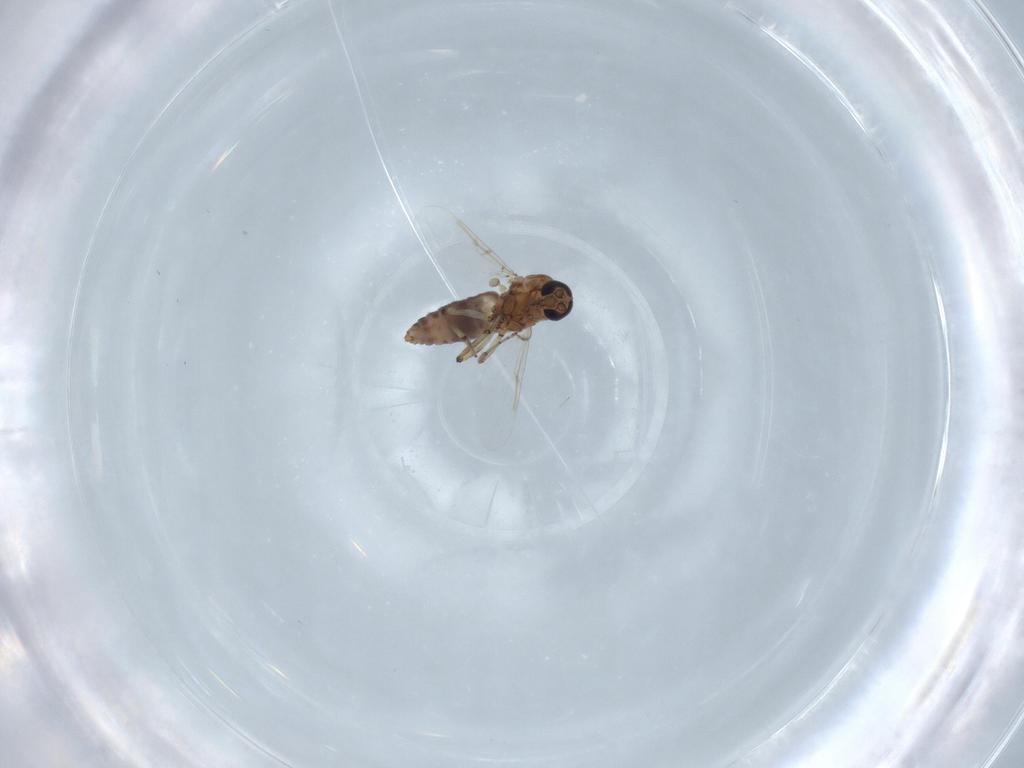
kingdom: Animalia
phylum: Arthropoda
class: Insecta
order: Diptera
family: Ceratopogonidae
